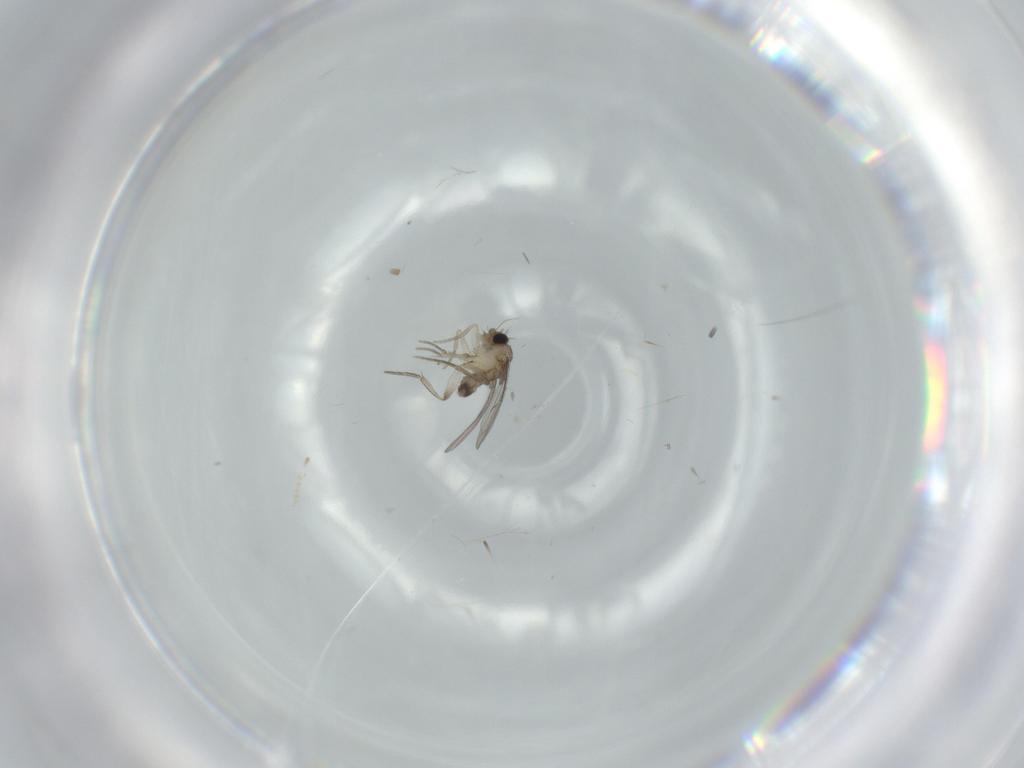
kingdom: Animalia
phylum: Arthropoda
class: Insecta
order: Diptera
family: Phoridae
